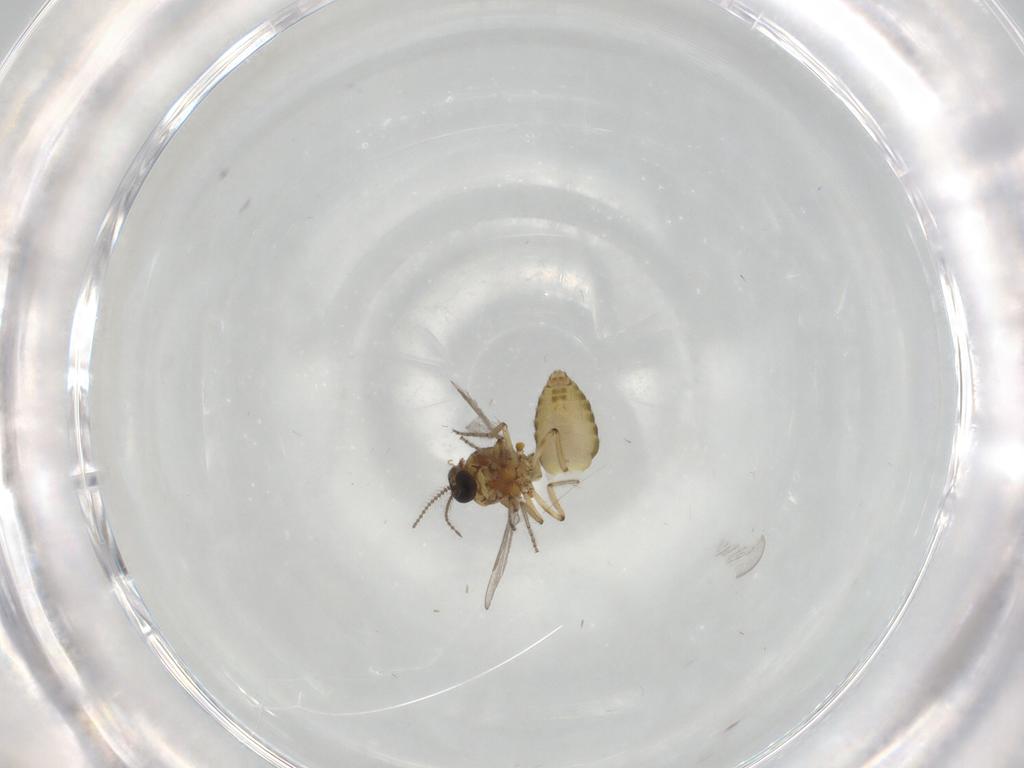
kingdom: Animalia
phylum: Arthropoda
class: Insecta
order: Diptera
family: Ceratopogonidae
